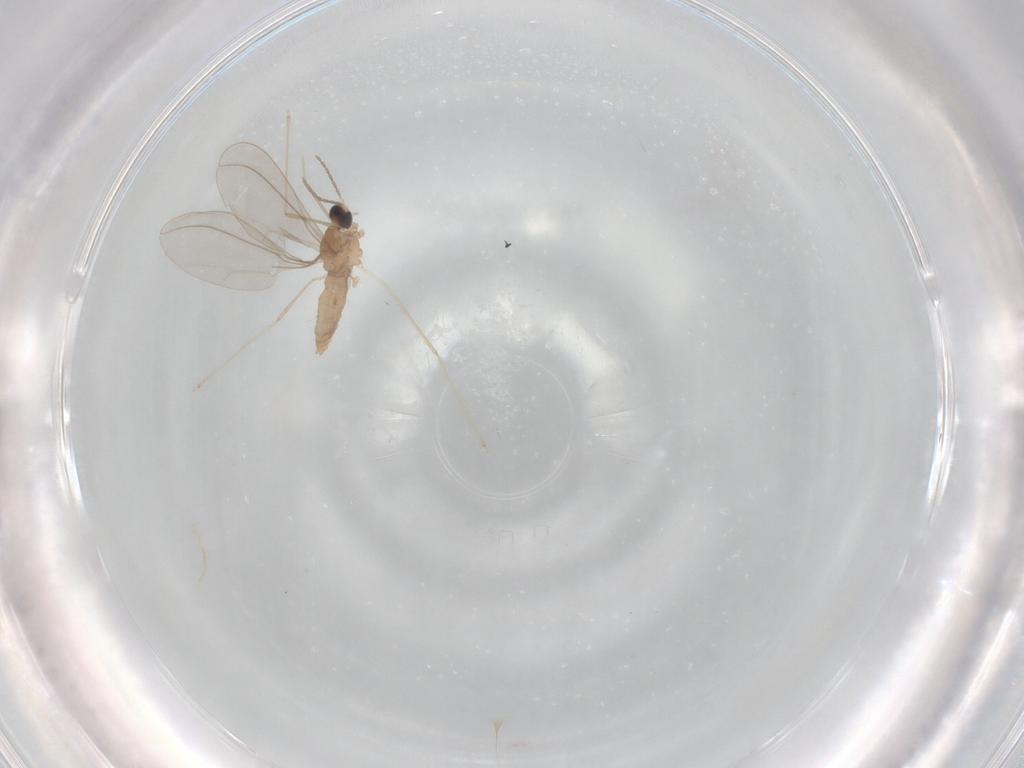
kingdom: Animalia
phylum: Arthropoda
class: Insecta
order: Diptera
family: Cecidomyiidae
